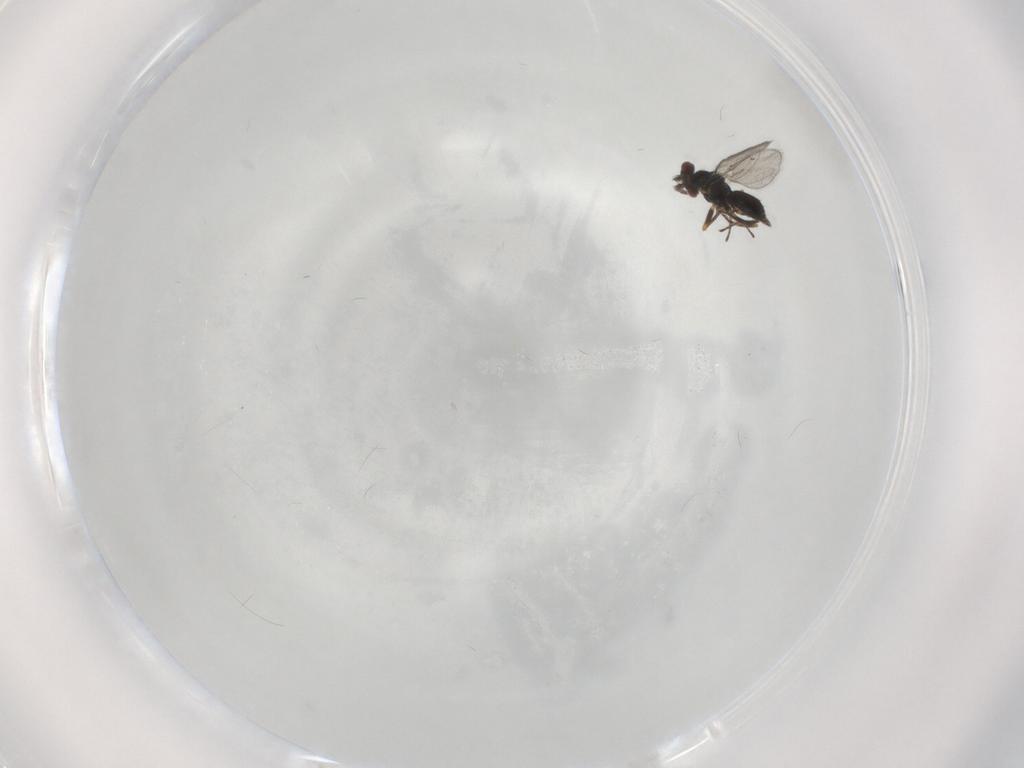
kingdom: Animalia
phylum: Arthropoda
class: Insecta
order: Hymenoptera
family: Eulophidae
